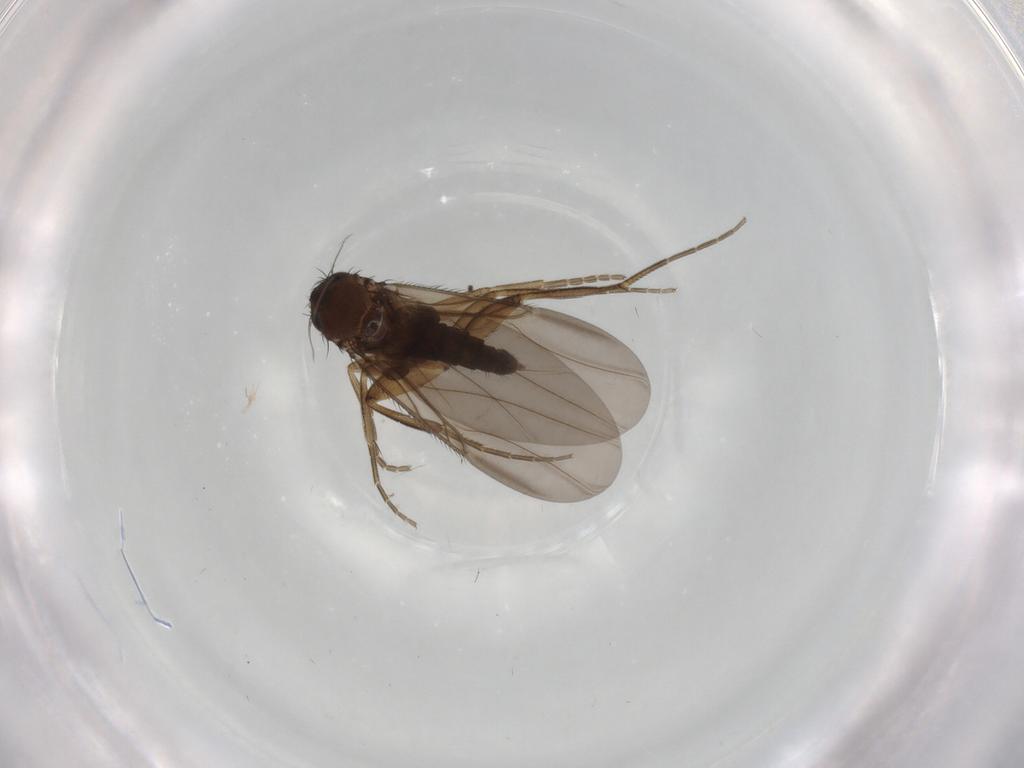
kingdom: Animalia
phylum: Arthropoda
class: Insecta
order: Diptera
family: Phoridae
